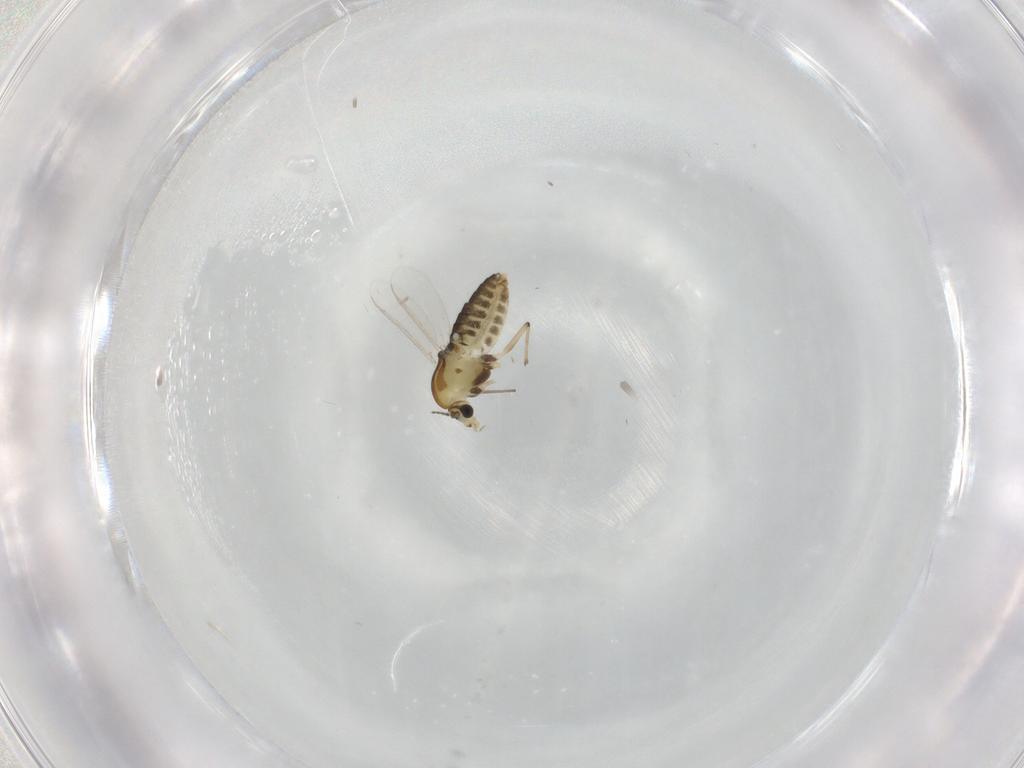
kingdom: Animalia
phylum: Arthropoda
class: Insecta
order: Diptera
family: Chironomidae
